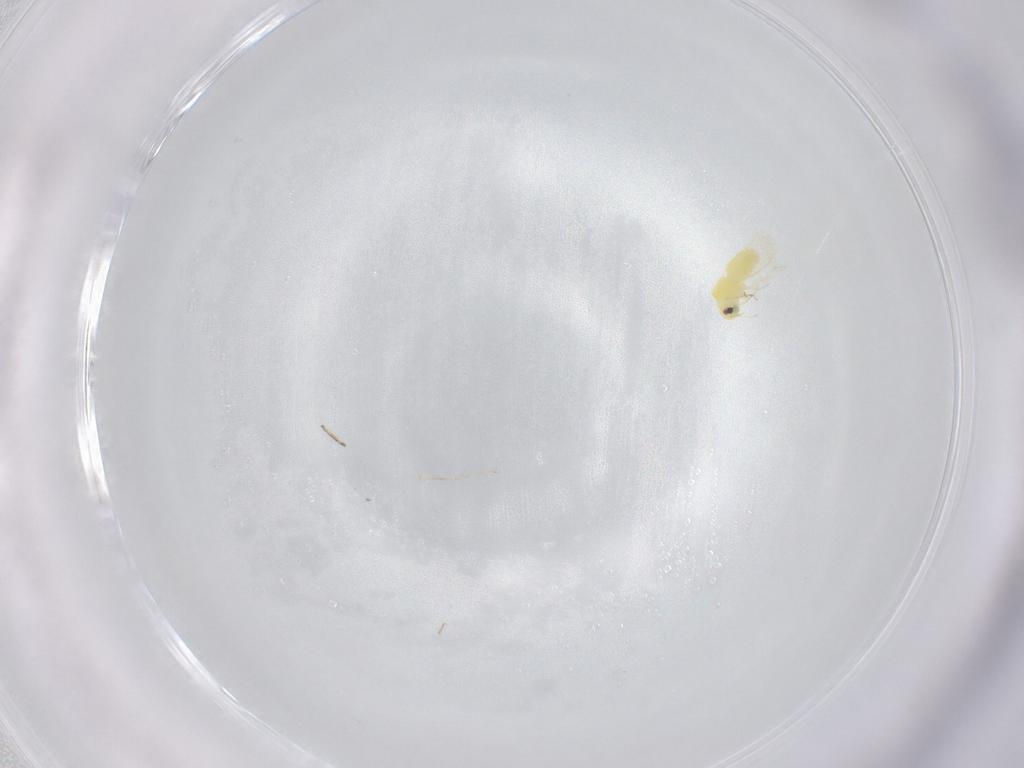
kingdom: Animalia
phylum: Arthropoda
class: Insecta
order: Hemiptera
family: Aleyrodidae
